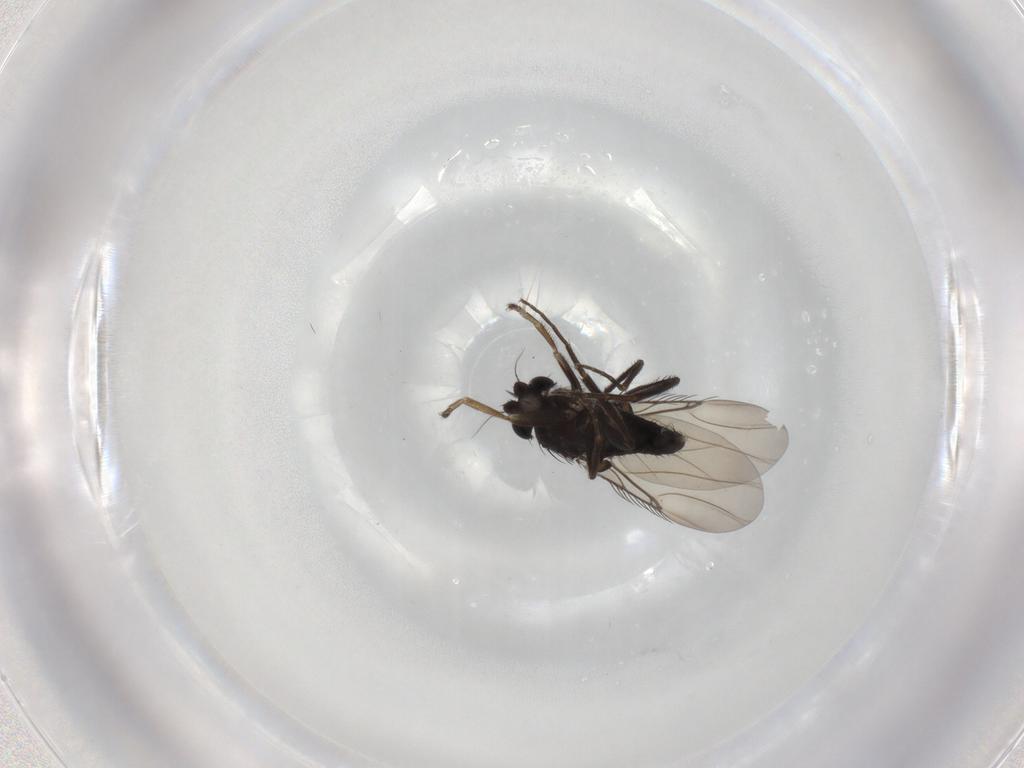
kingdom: Animalia
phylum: Arthropoda
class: Insecta
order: Diptera
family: Phoridae
